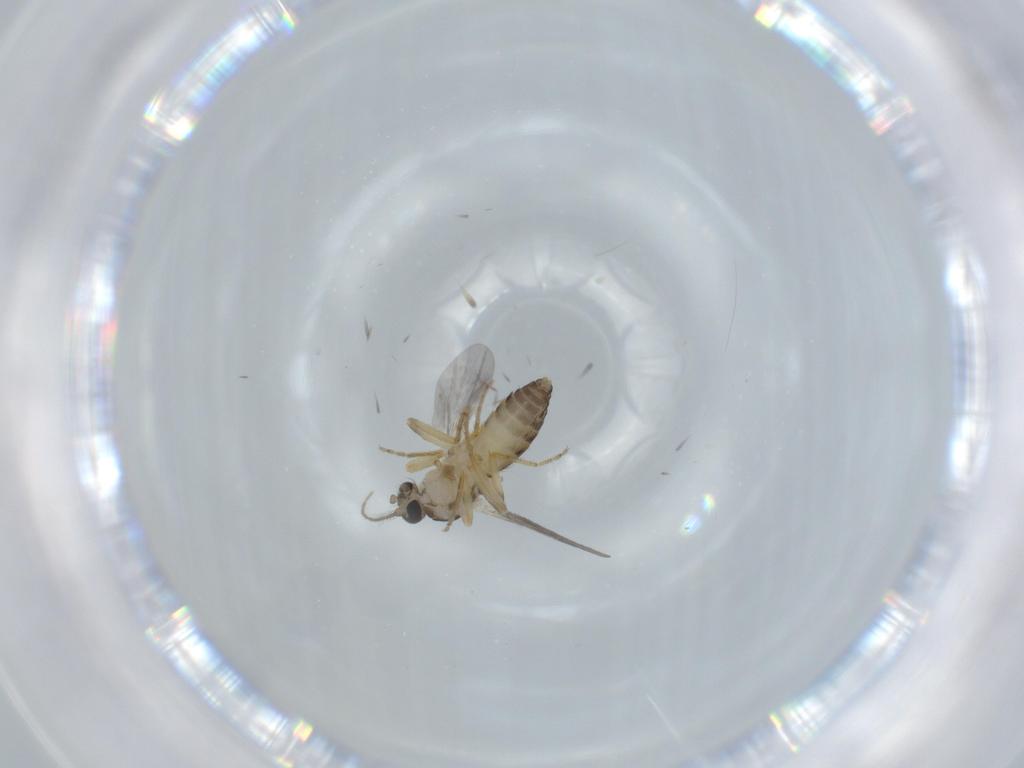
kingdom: Animalia
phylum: Arthropoda
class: Insecta
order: Diptera
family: Ceratopogonidae
